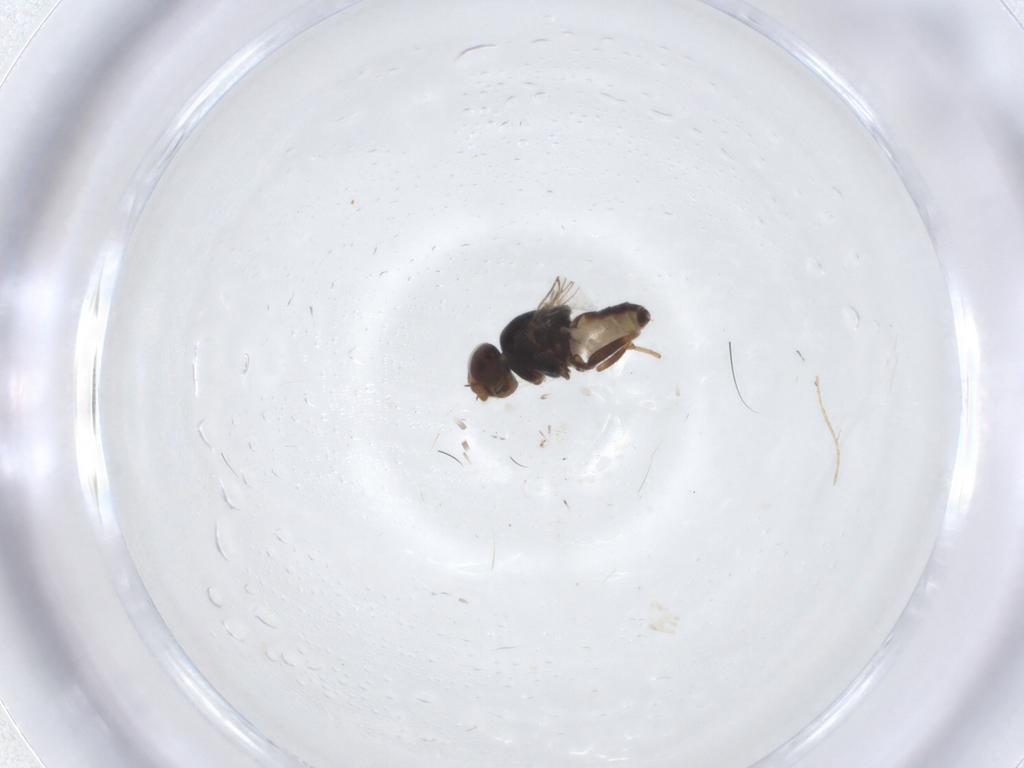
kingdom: Animalia
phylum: Arthropoda
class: Insecta
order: Diptera
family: Chloropidae
